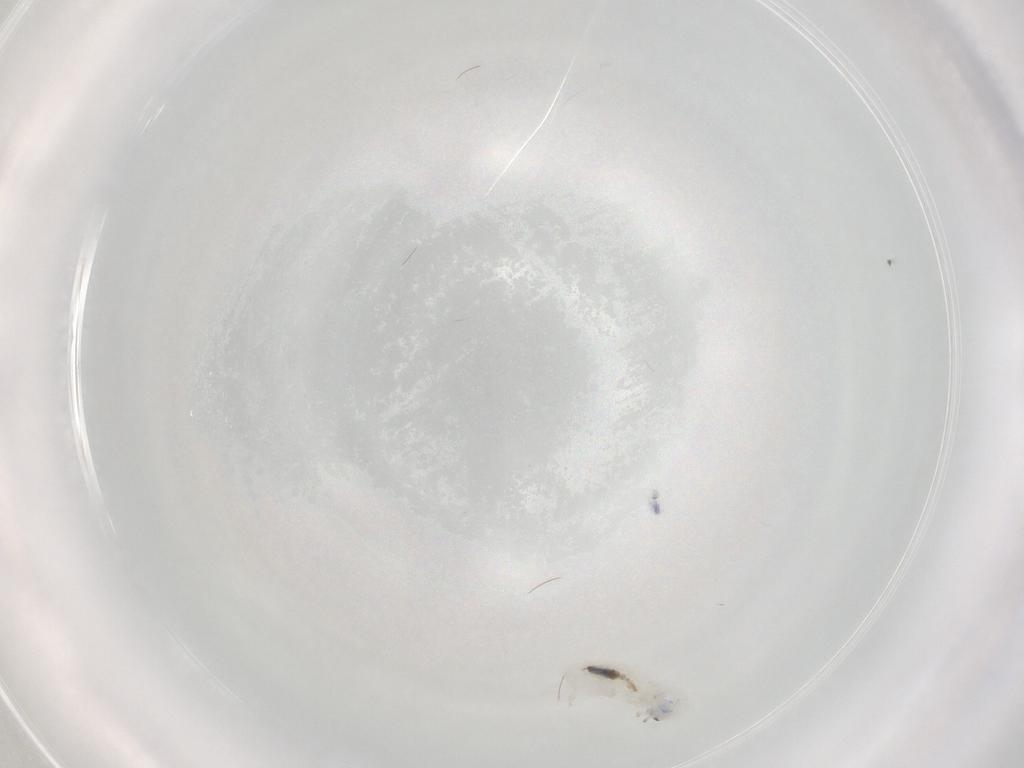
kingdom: Animalia
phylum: Arthropoda
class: Collembola
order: Entomobryomorpha
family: Entomobryidae
